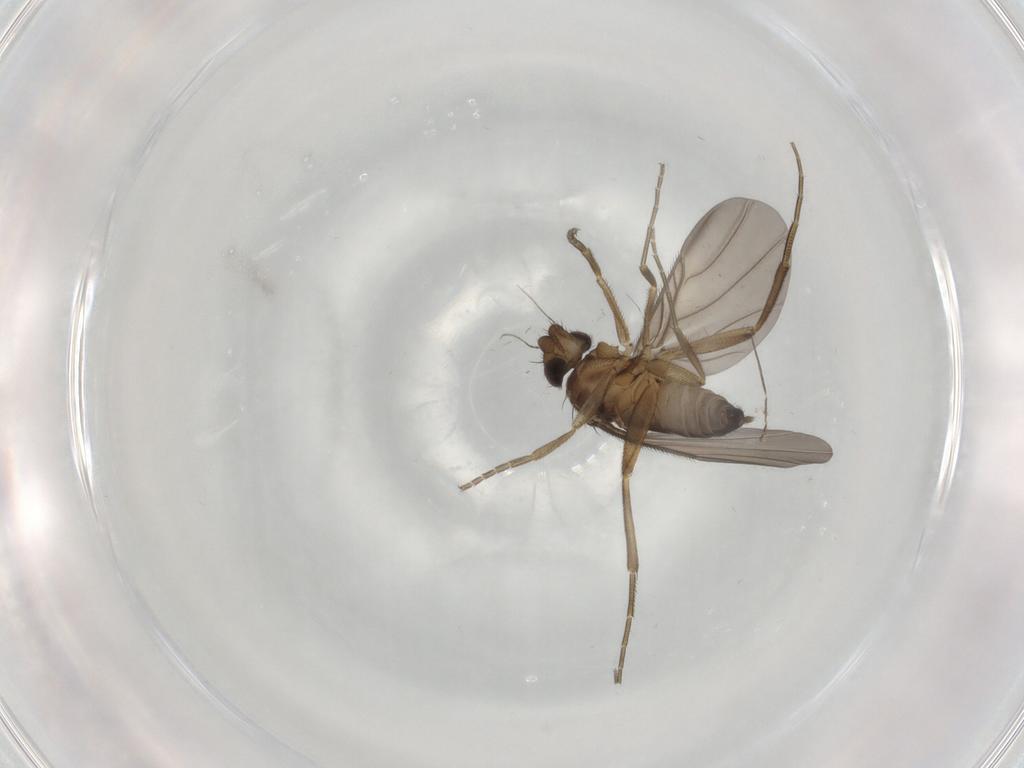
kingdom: Animalia
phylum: Arthropoda
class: Insecta
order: Diptera
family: Phoridae
